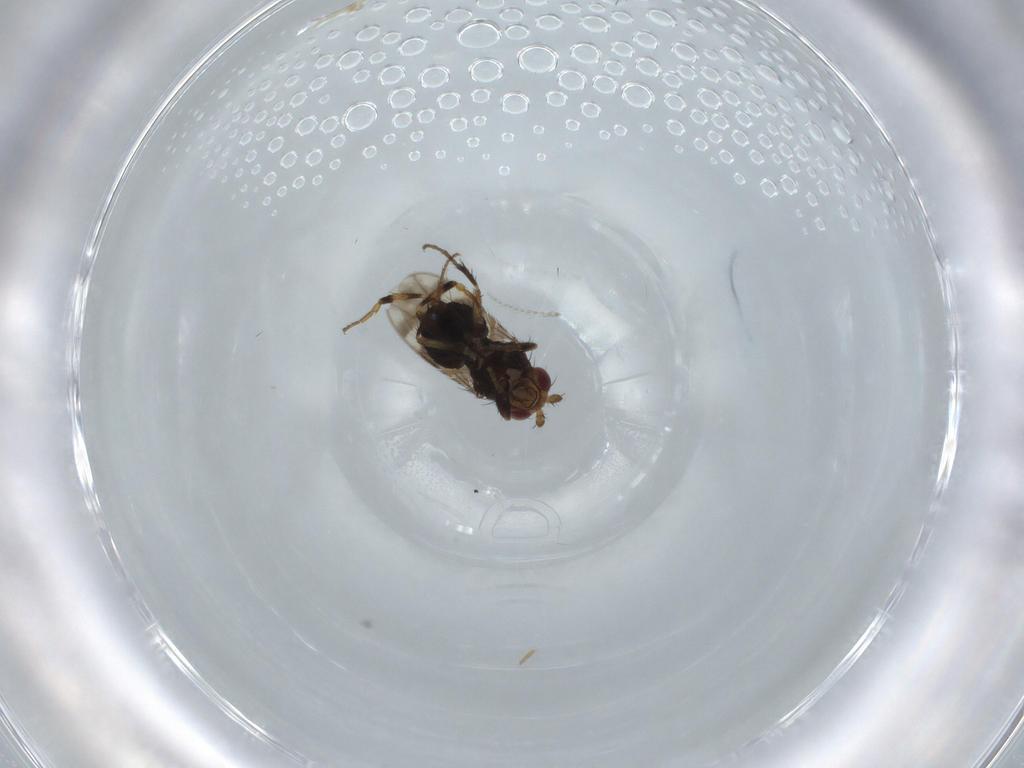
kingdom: Animalia
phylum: Arthropoda
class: Insecta
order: Diptera
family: Sphaeroceridae
